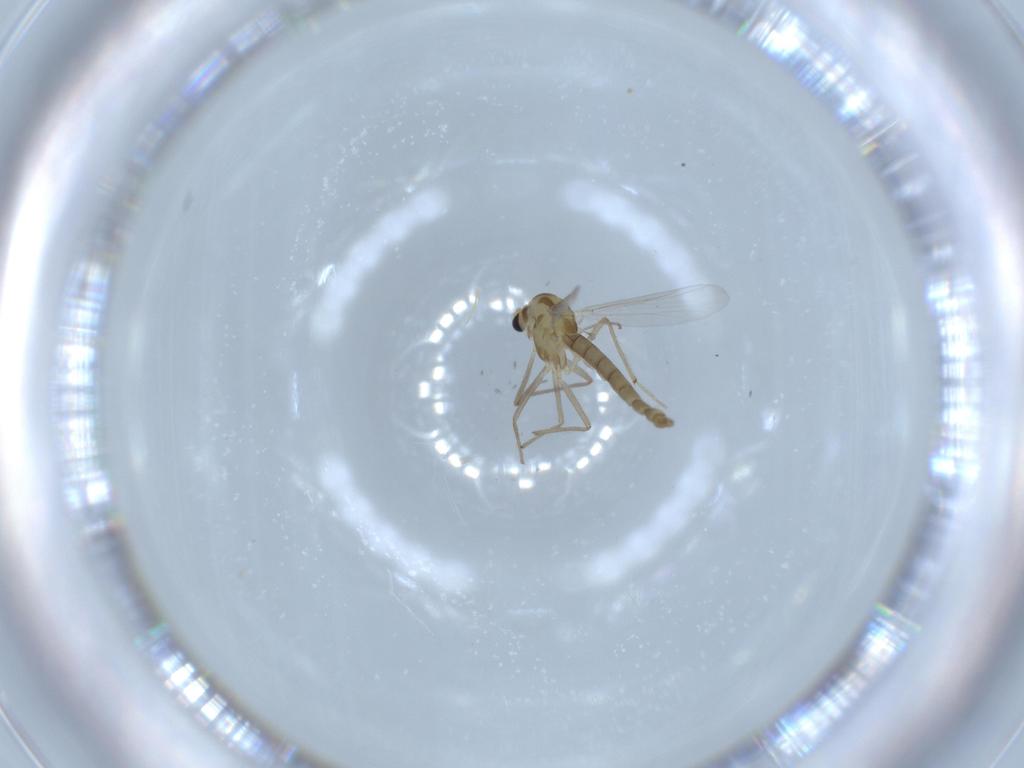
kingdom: Animalia
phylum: Arthropoda
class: Insecta
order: Diptera
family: Chironomidae
